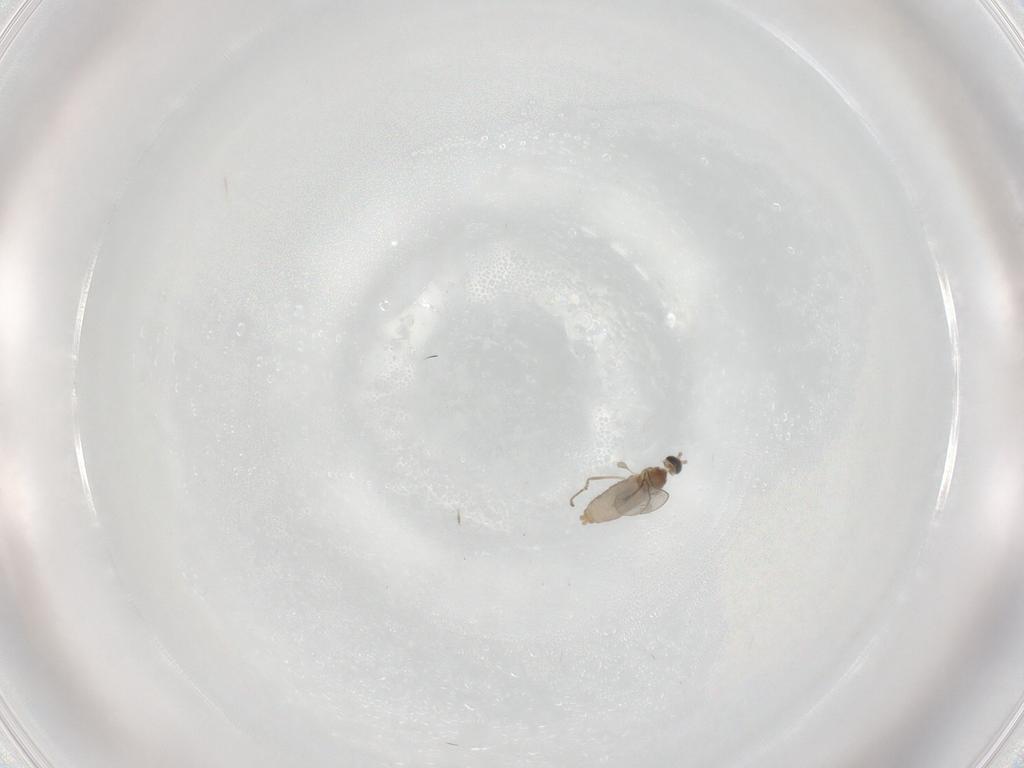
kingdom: Animalia
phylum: Arthropoda
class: Insecta
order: Diptera
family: Cecidomyiidae
